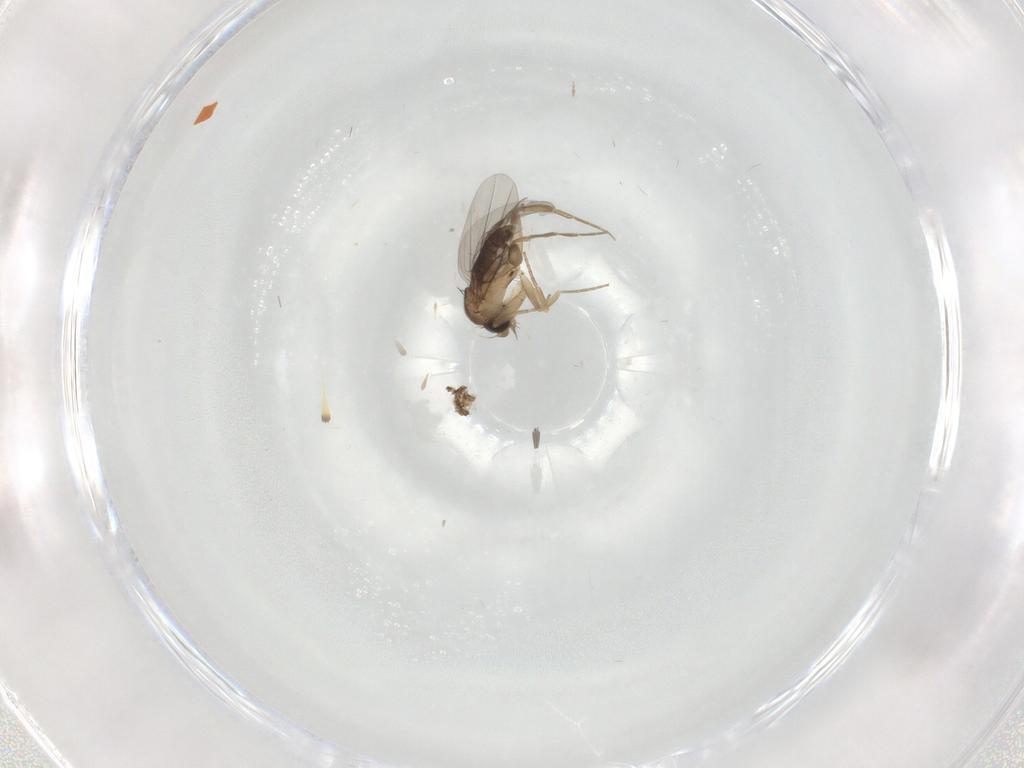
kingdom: Animalia
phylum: Arthropoda
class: Insecta
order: Diptera
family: Phoridae
